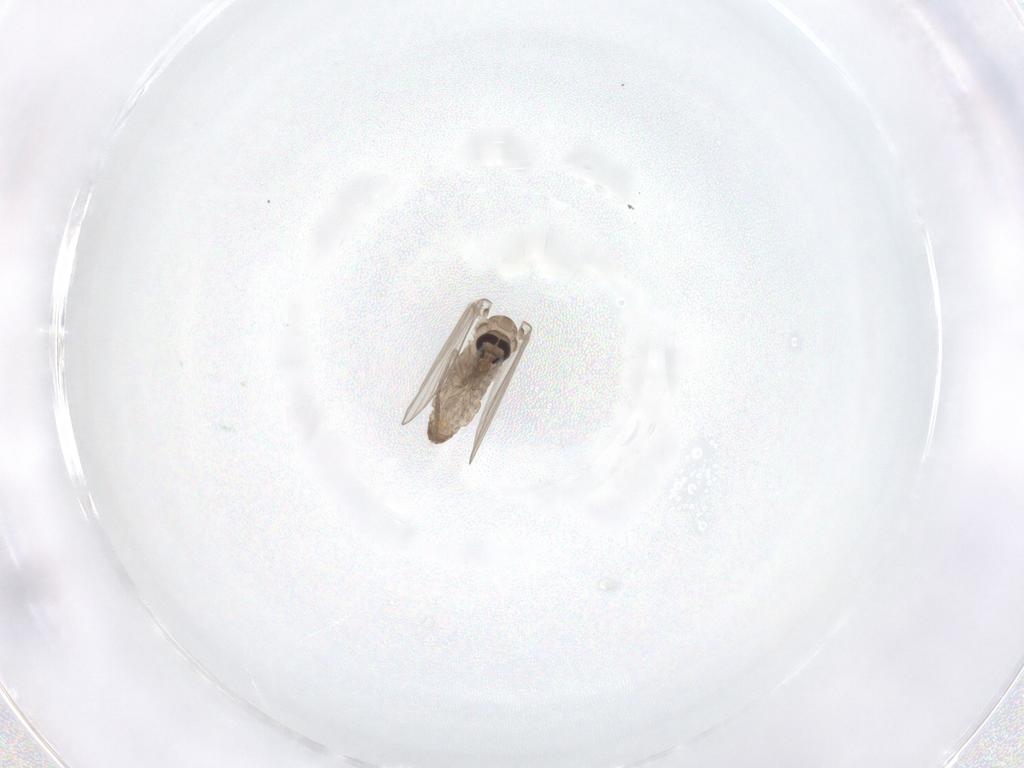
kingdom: Animalia
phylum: Arthropoda
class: Insecta
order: Diptera
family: Psychodidae
